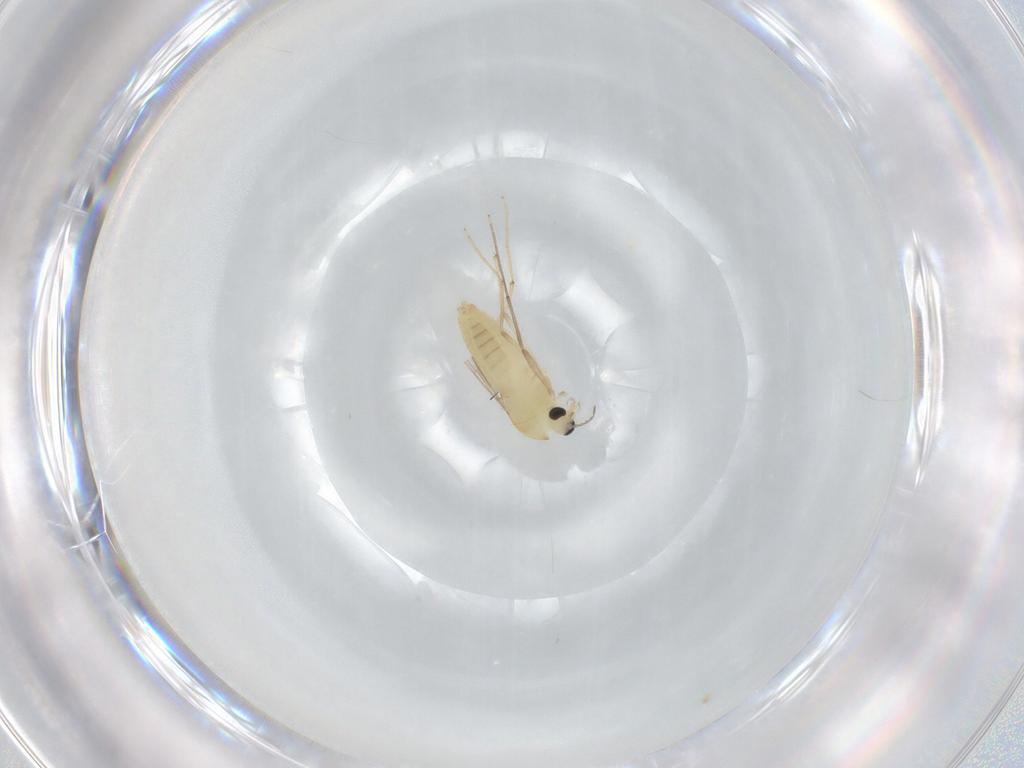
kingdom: Animalia
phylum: Arthropoda
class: Insecta
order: Diptera
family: Chironomidae
